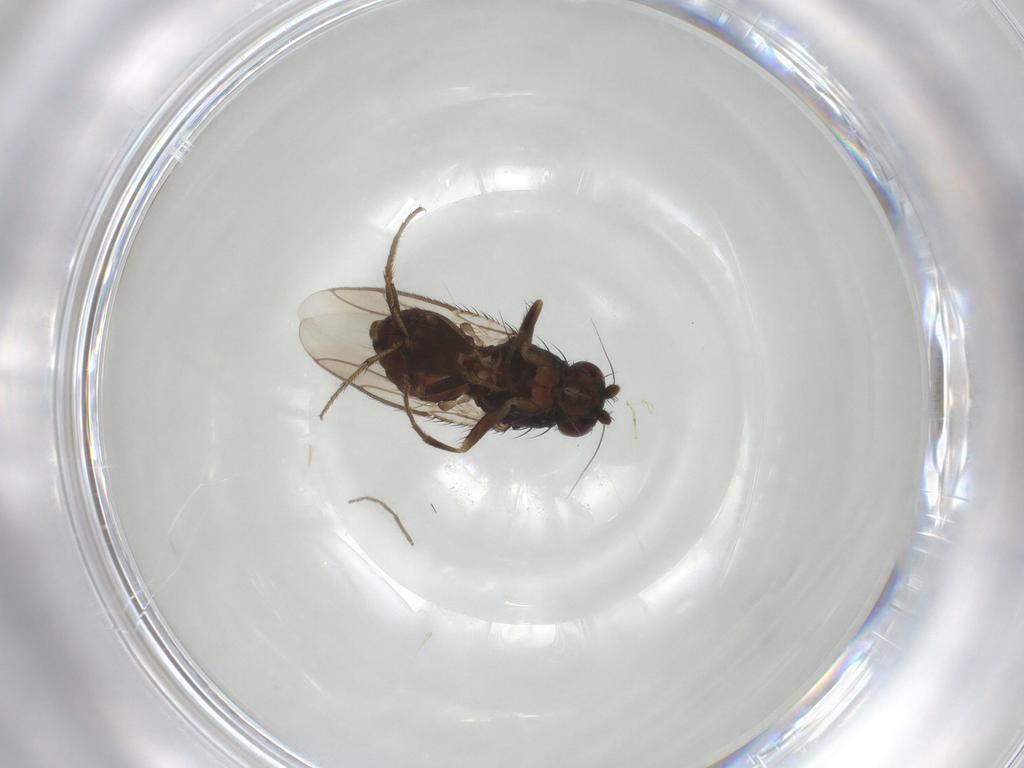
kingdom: Animalia
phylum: Arthropoda
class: Insecta
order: Diptera
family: Sphaeroceridae
